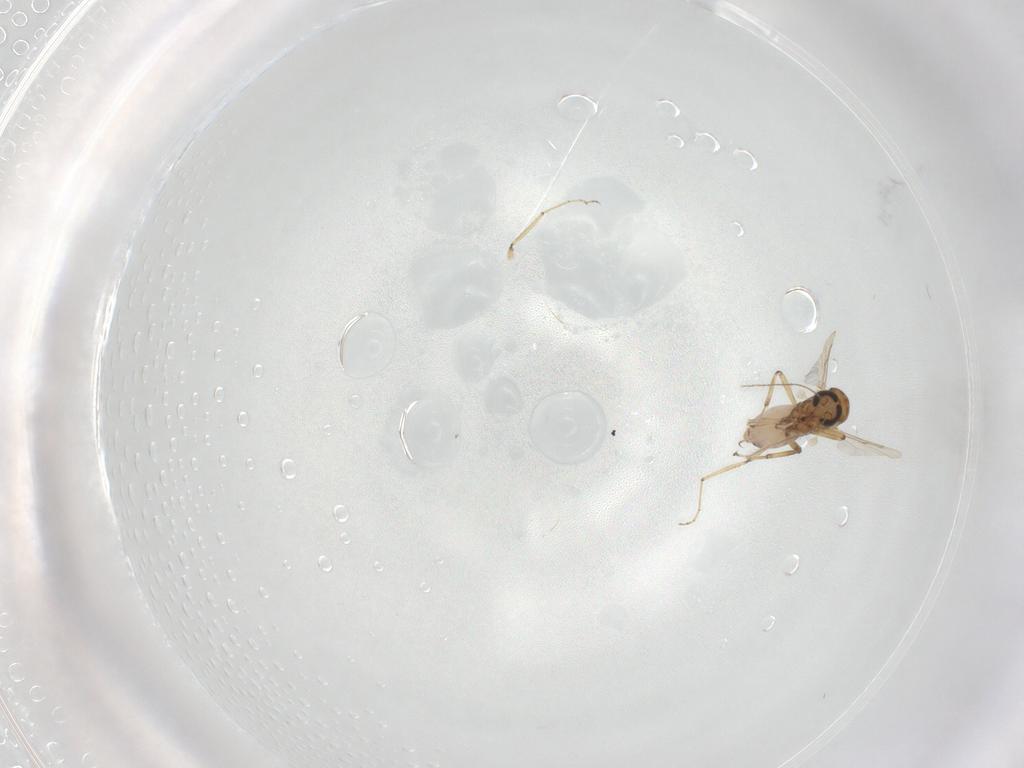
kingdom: Animalia
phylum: Arthropoda
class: Insecta
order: Diptera
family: Ceratopogonidae
